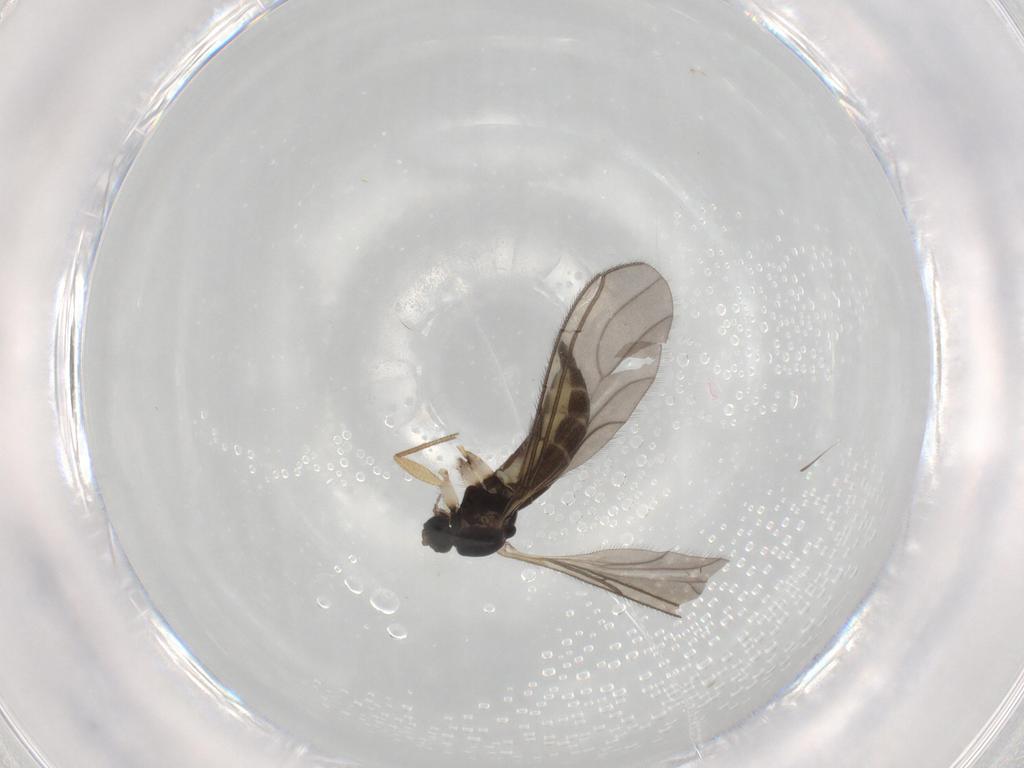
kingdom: Animalia
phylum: Arthropoda
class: Insecta
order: Diptera
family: Sciaridae
